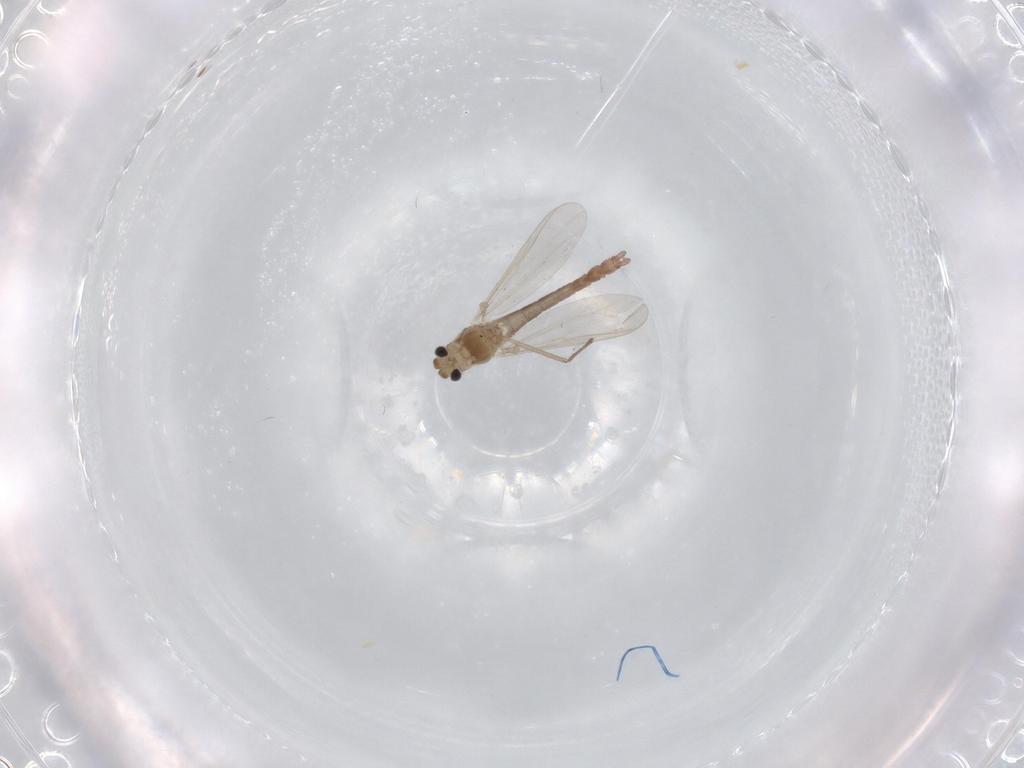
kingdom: Animalia
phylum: Arthropoda
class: Insecta
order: Diptera
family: Chironomidae
